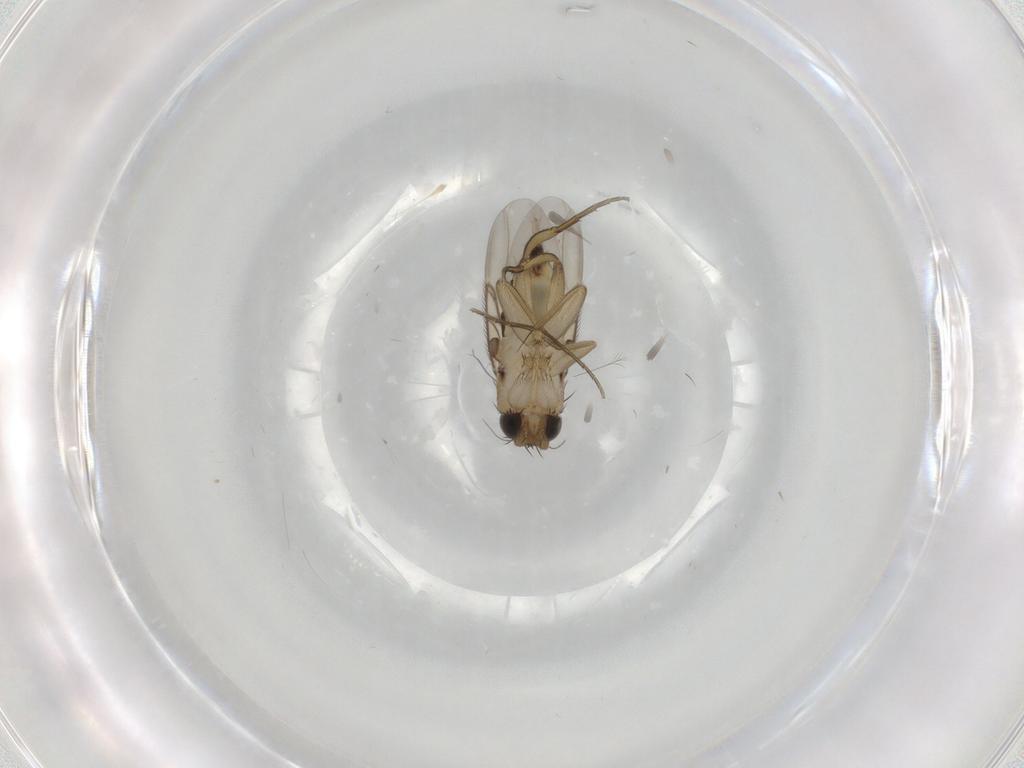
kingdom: Animalia
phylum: Arthropoda
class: Insecta
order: Diptera
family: Phoridae
